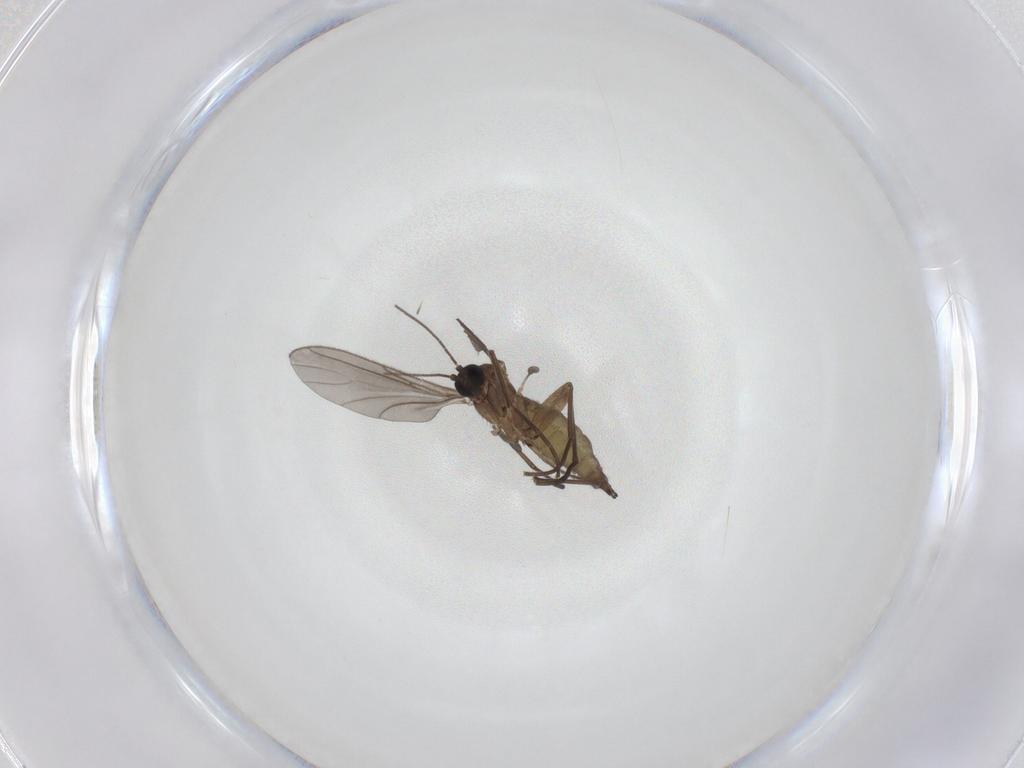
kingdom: Animalia
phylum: Arthropoda
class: Insecta
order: Diptera
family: Sciaridae
